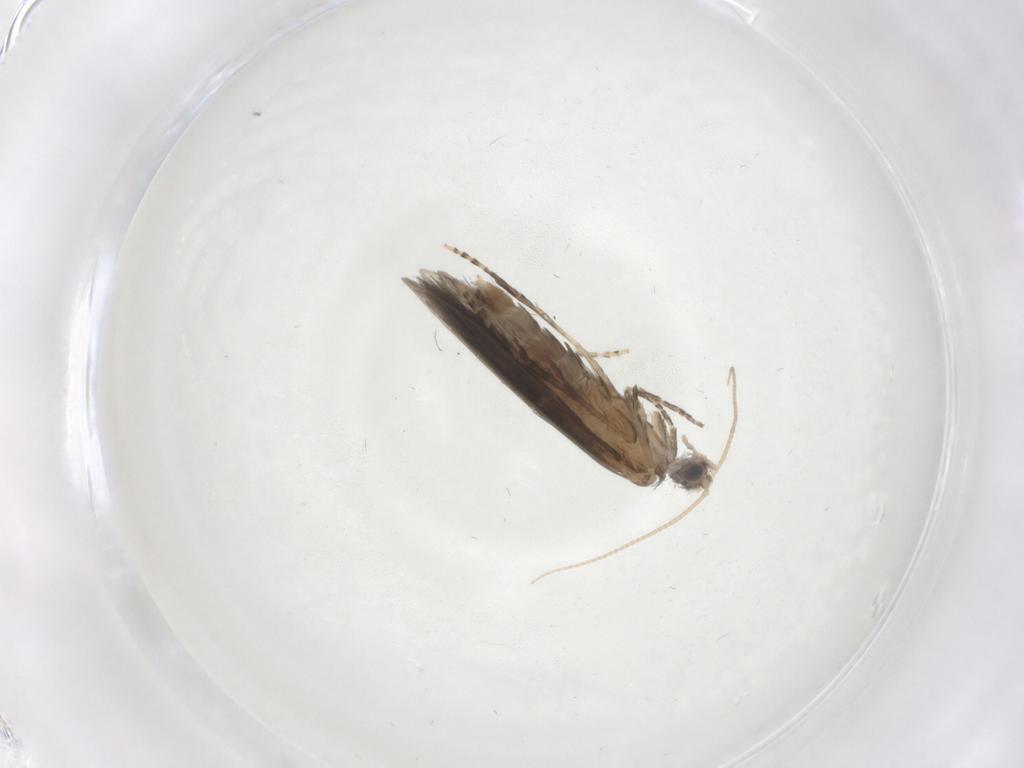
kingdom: Animalia
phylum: Arthropoda
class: Insecta
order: Trichoptera
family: Hydroptilidae
